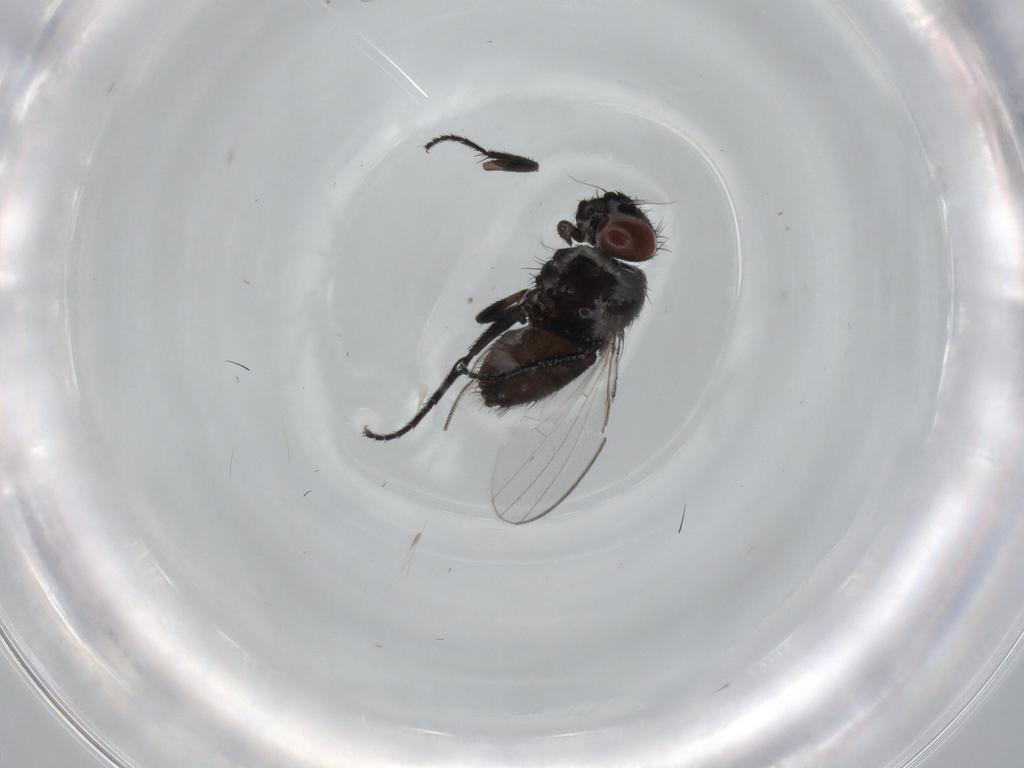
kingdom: Animalia
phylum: Arthropoda
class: Insecta
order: Diptera
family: Milichiidae
